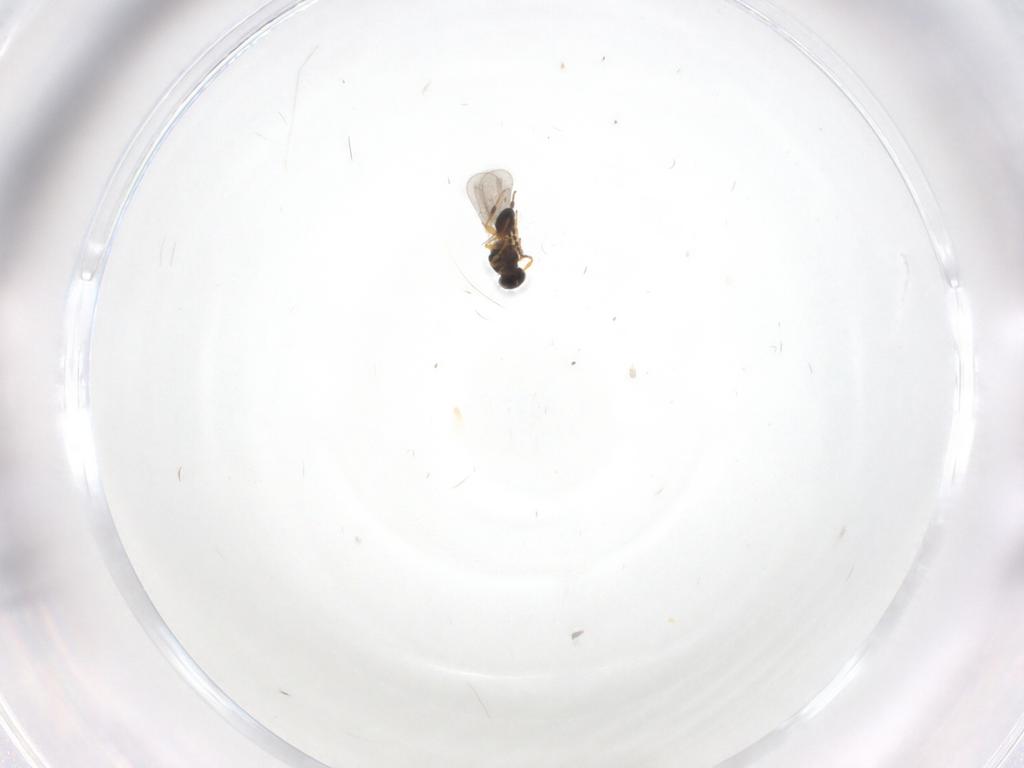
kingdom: Animalia
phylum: Arthropoda
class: Insecta
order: Hymenoptera
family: Platygastridae
